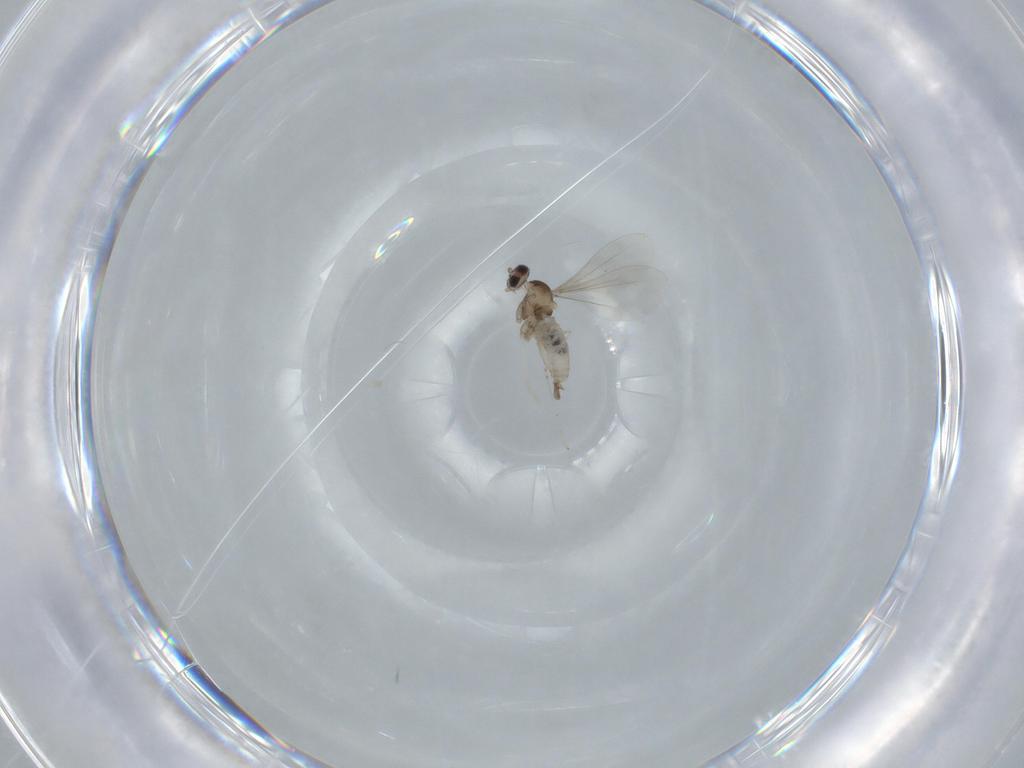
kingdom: Animalia
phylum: Arthropoda
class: Insecta
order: Diptera
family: Cecidomyiidae
